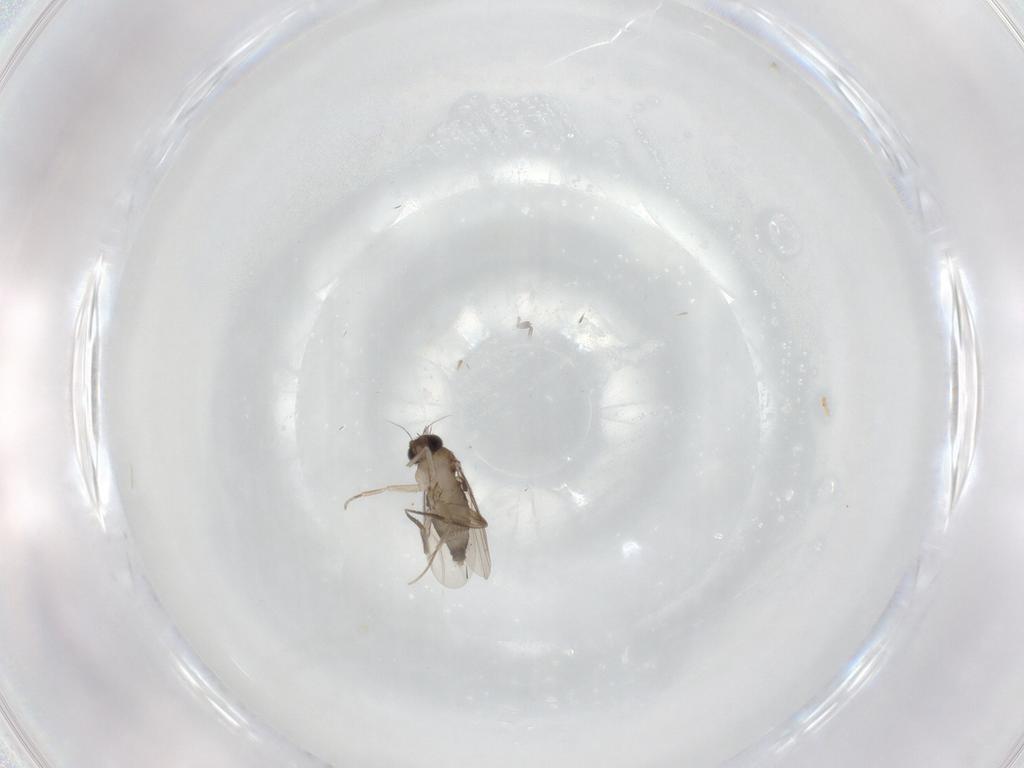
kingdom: Animalia
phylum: Arthropoda
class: Insecta
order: Diptera
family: Phoridae
